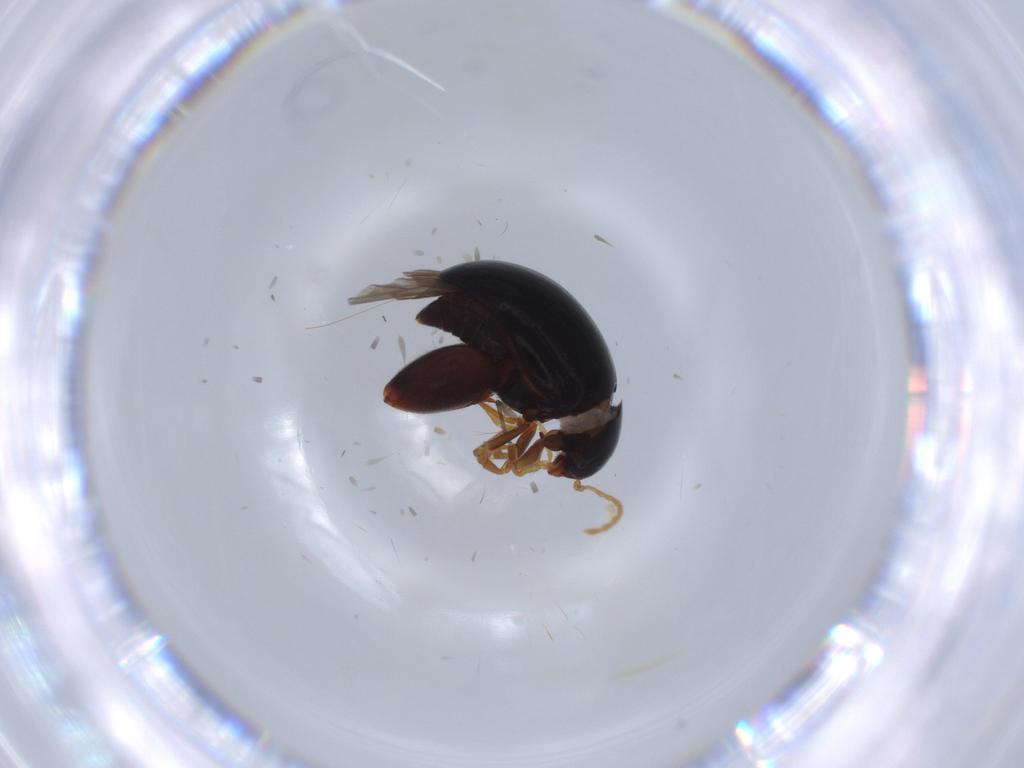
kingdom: Animalia
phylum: Arthropoda
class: Insecta
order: Coleoptera
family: Chrysomelidae
